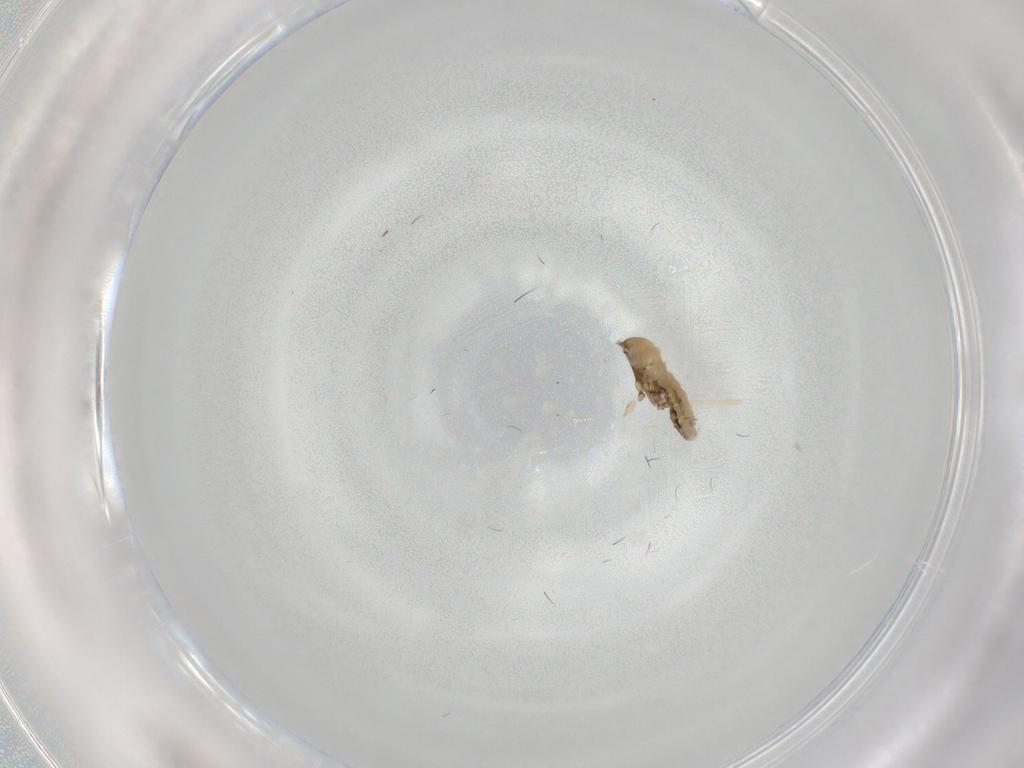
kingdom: Animalia
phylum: Arthropoda
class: Insecta
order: Diptera
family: Cecidomyiidae
